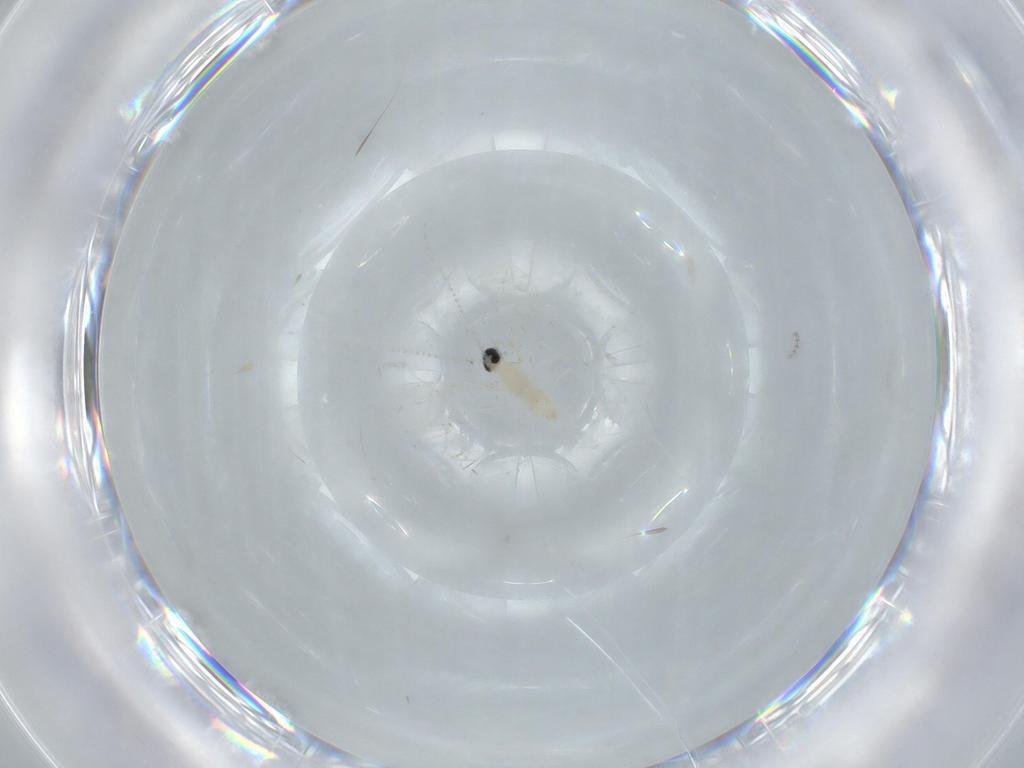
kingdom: Animalia
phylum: Arthropoda
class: Insecta
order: Diptera
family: Cecidomyiidae
